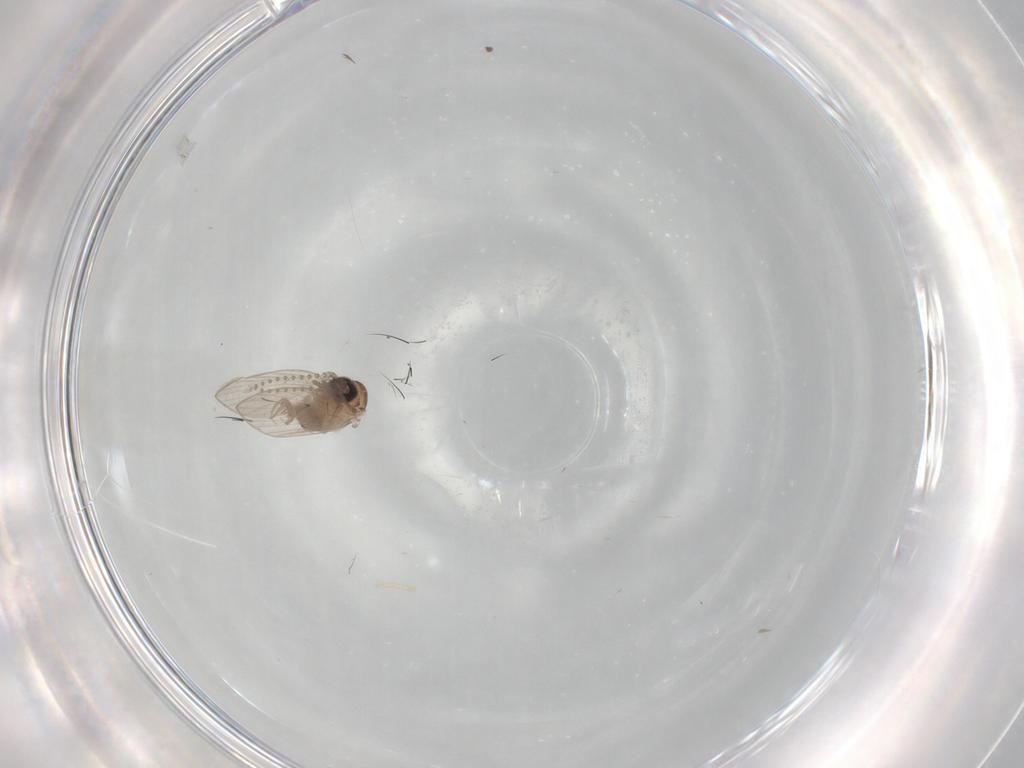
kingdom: Animalia
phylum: Arthropoda
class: Insecta
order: Diptera
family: Psychodidae
